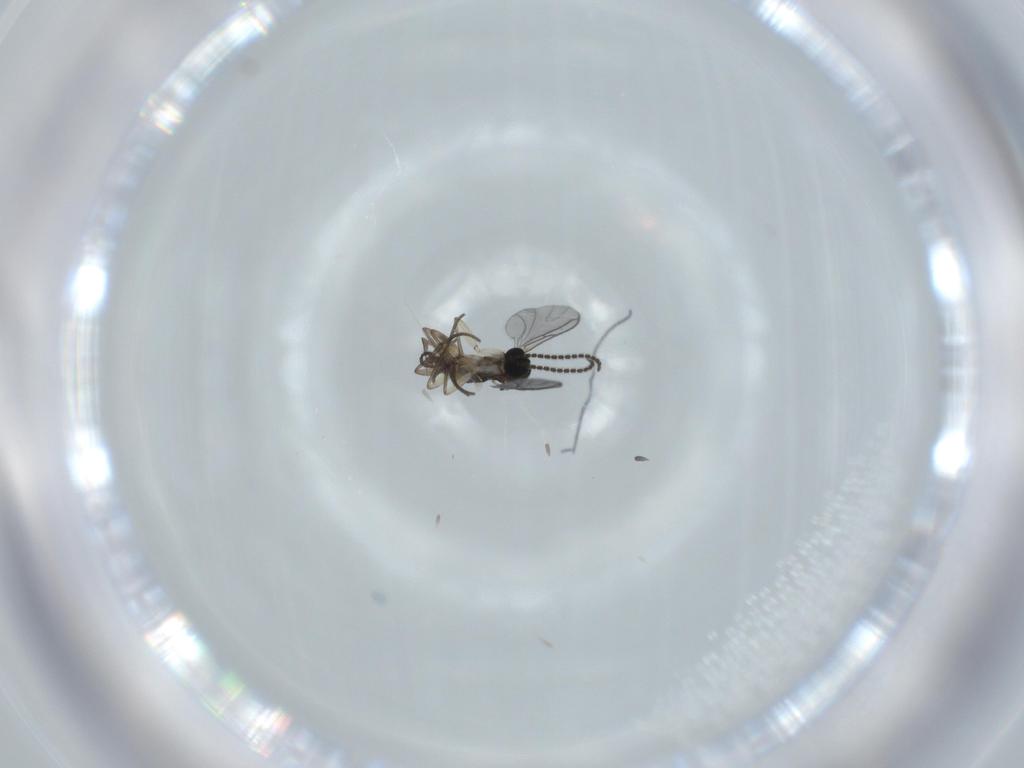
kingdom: Animalia
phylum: Arthropoda
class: Insecta
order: Diptera
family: Sciaridae
